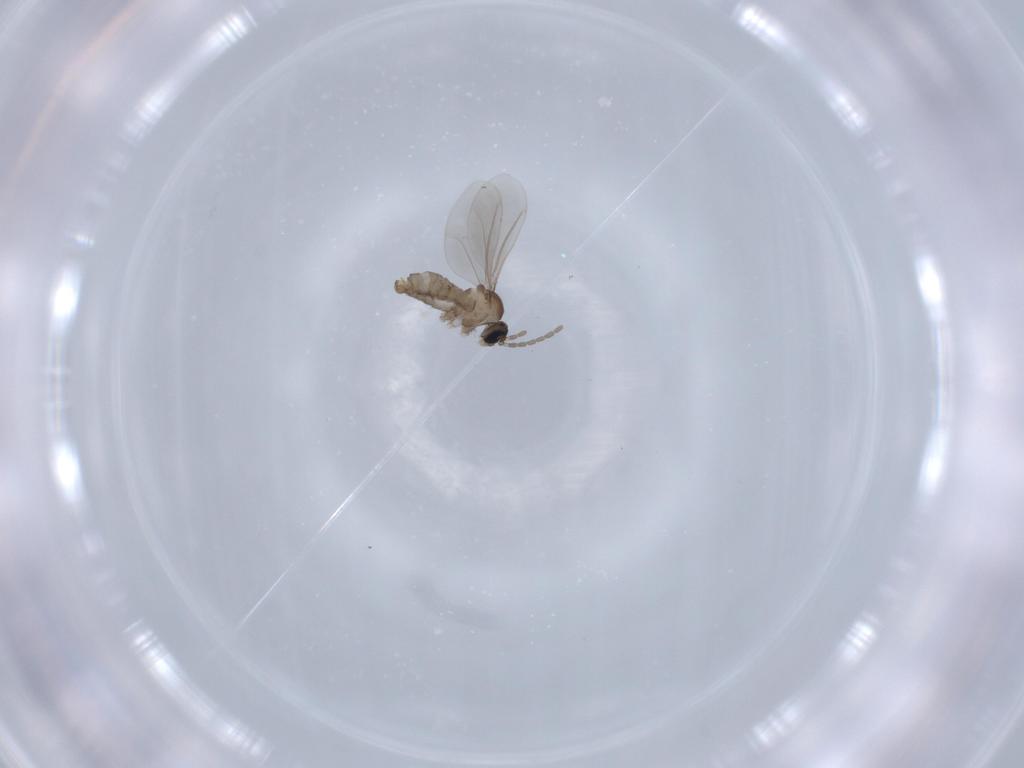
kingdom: Animalia
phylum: Arthropoda
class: Insecta
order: Diptera
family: Cecidomyiidae
